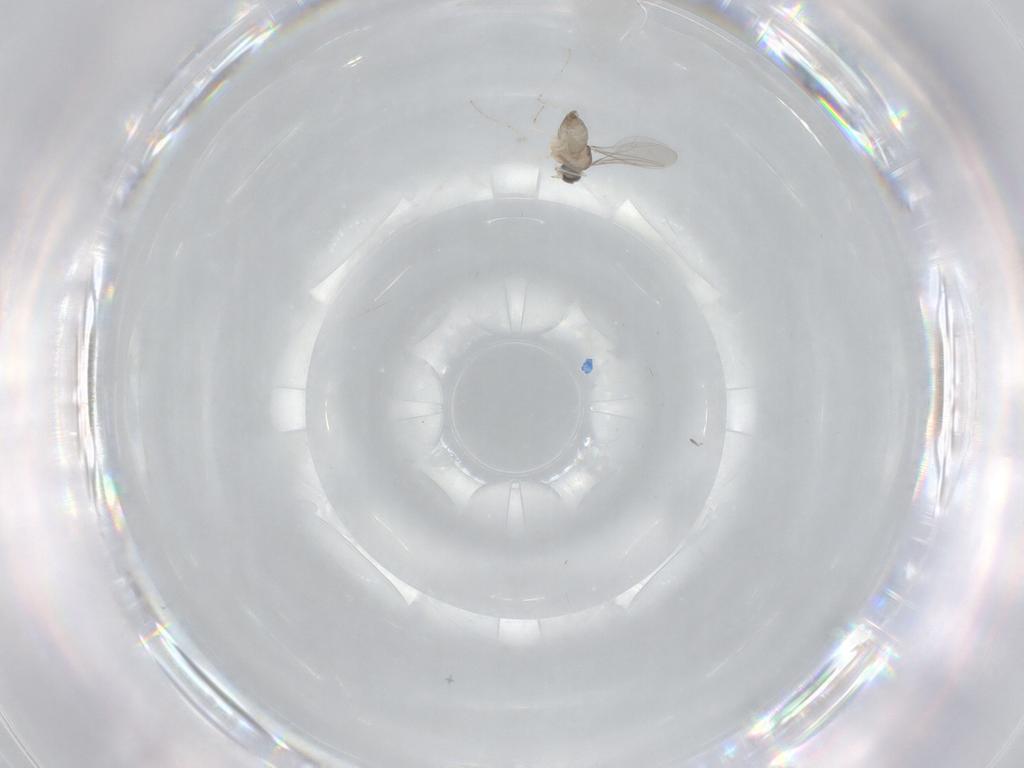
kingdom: Animalia
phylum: Arthropoda
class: Insecta
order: Diptera
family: Cecidomyiidae
